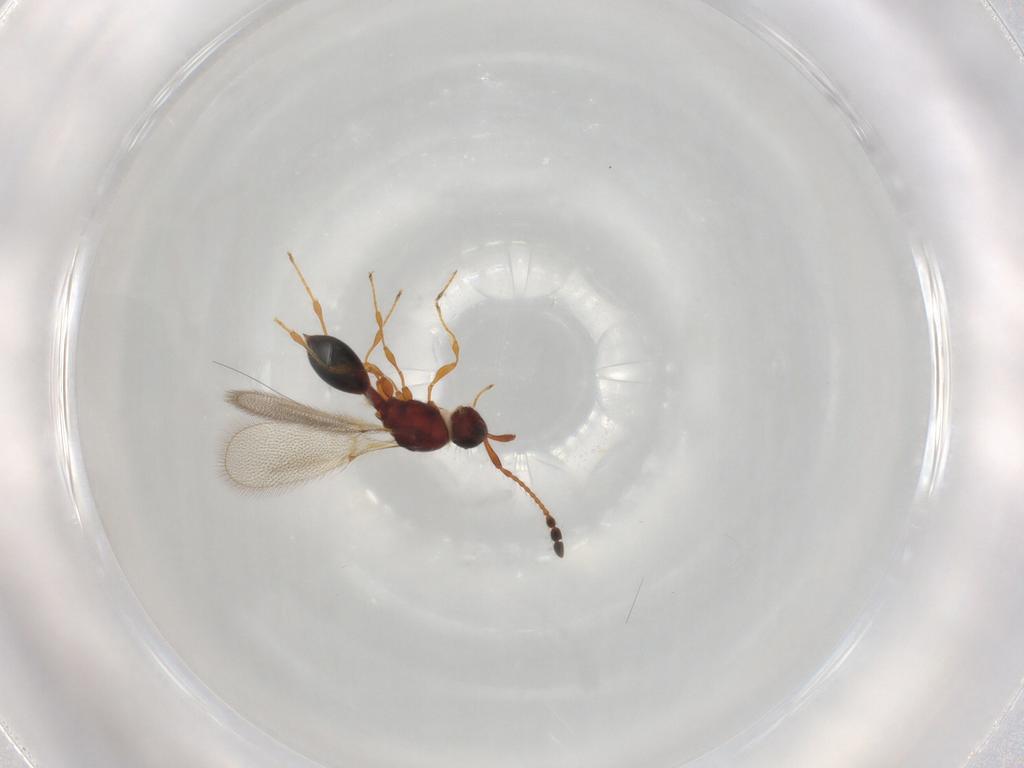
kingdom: Animalia
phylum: Arthropoda
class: Insecta
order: Hymenoptera
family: Diapriidae
